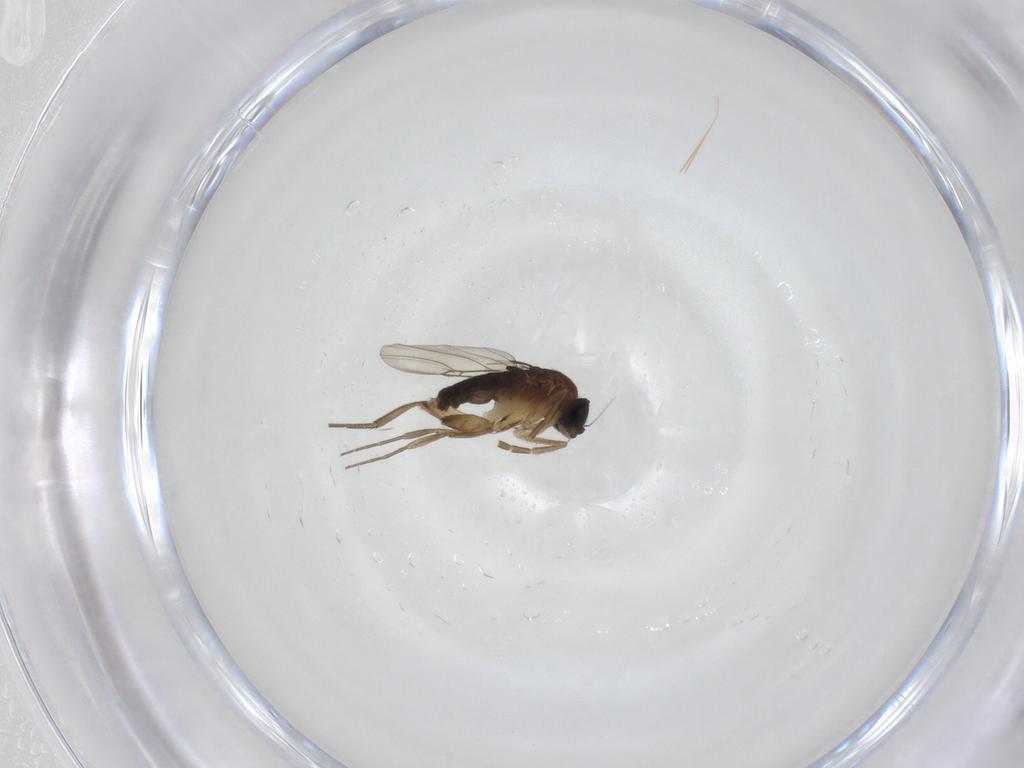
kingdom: Animalia
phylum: Arthropoda
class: Insecta
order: Diptera
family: Phoridae
